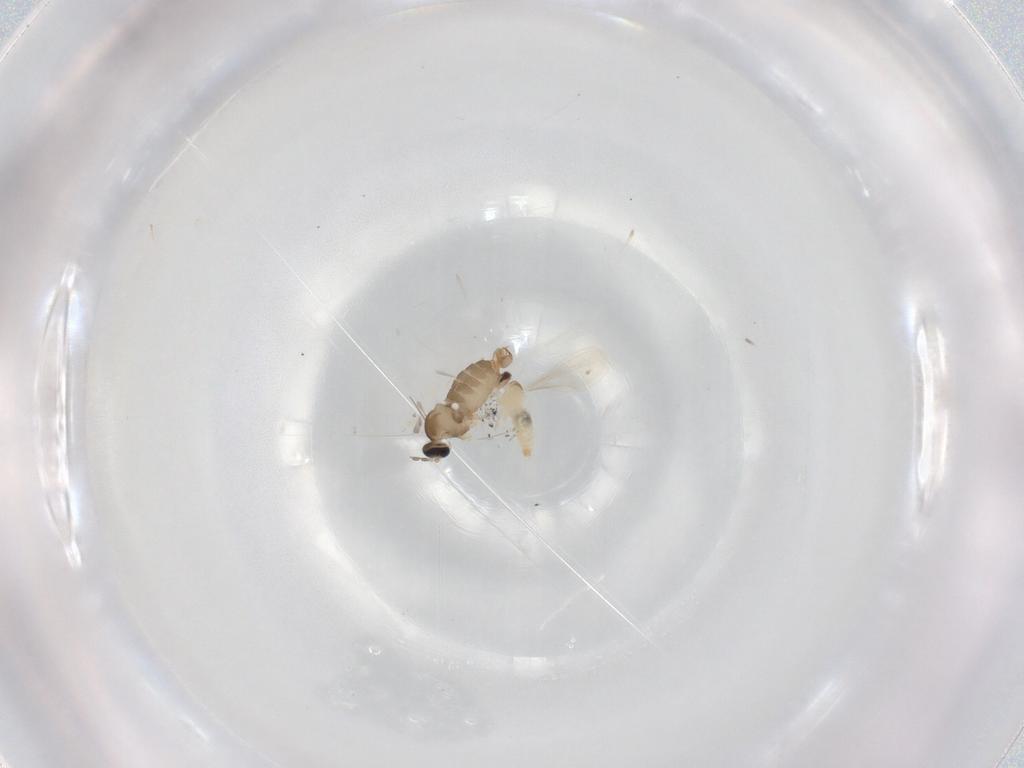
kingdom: Animalia
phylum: Arthropoda
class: Insecta
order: Diptera
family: Cecidomyiidae
